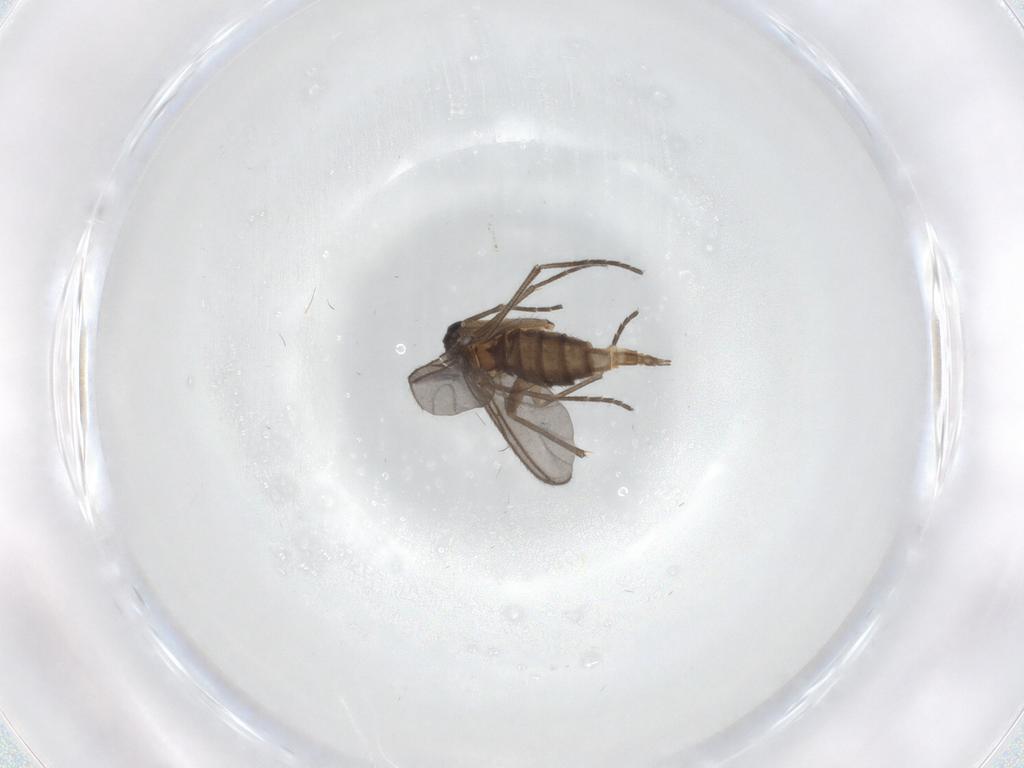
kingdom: Animalia
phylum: Arthropoda
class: Insecta
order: Diptera
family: Sciaridae
